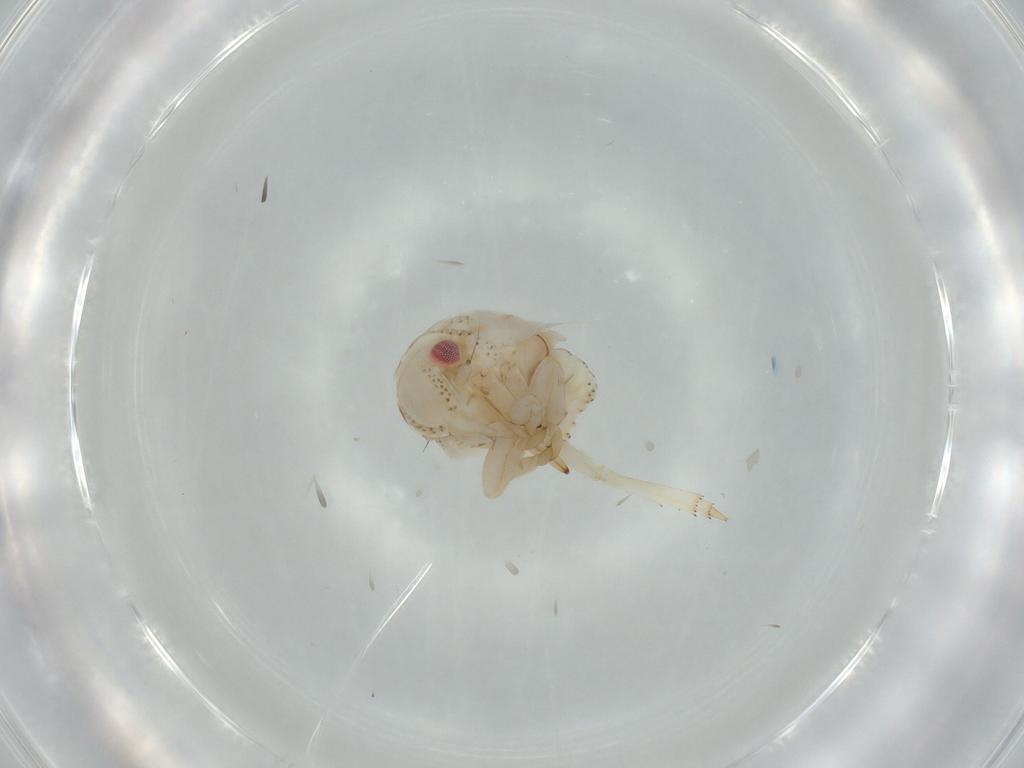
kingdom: Animalia
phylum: Arthropoda
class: Insecta
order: Hemiptera
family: Acanaloniidae
